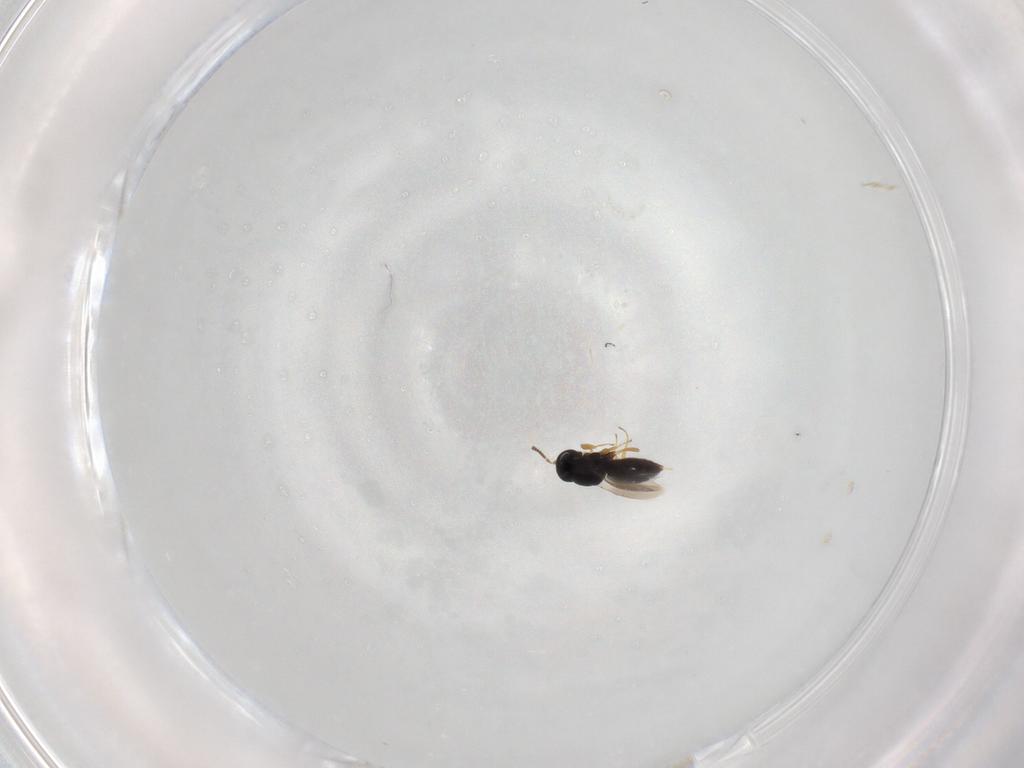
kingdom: Animalia
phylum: Arthropoda
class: Insecta
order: Hymenoptera
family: Scelionidae
